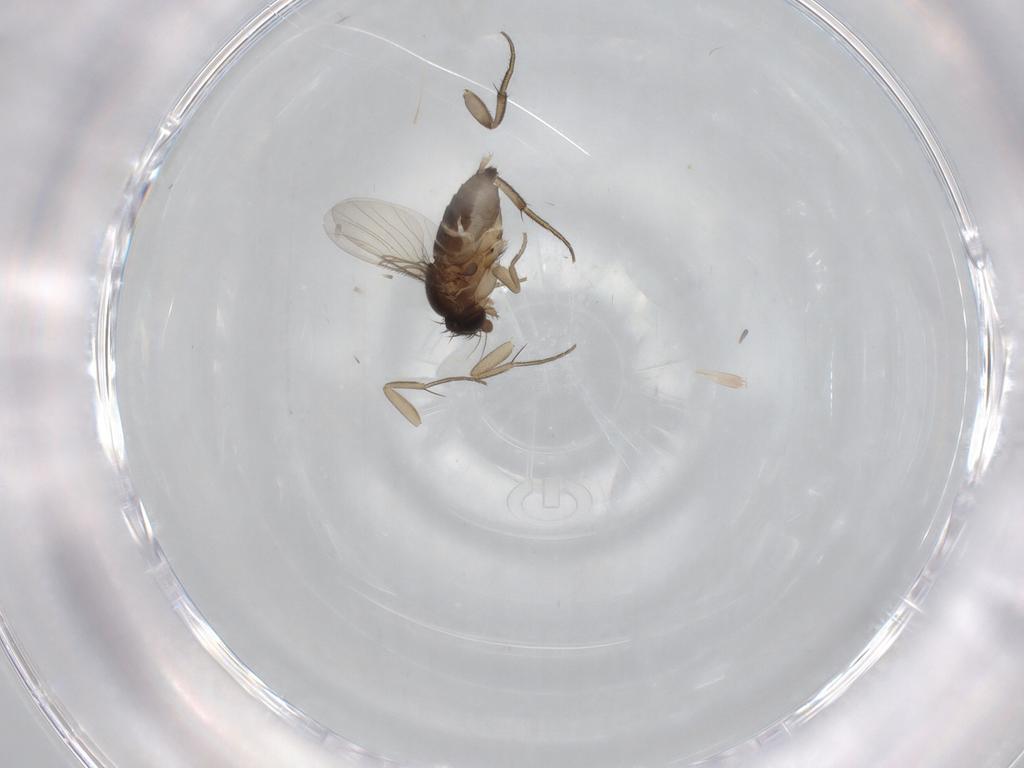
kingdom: Animalia
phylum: Arthropoda
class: Insecta
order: Diptera
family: Phoridae
